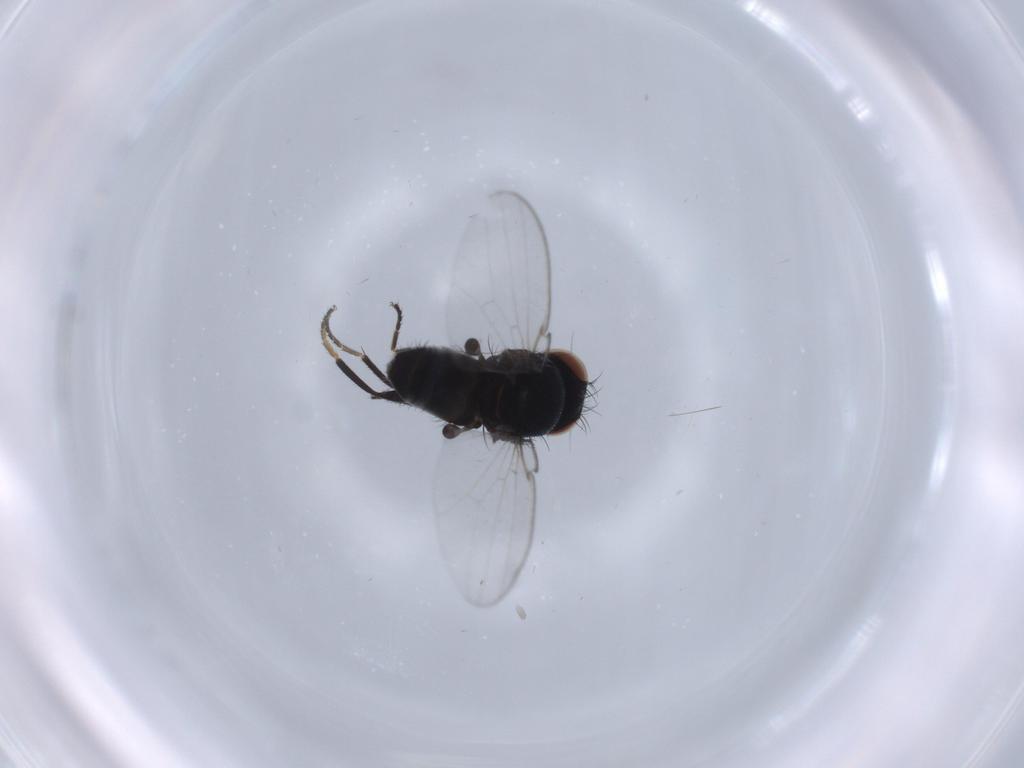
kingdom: Animalia
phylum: Arthropoda
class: Insecta
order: Diptera
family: Milichiidae
